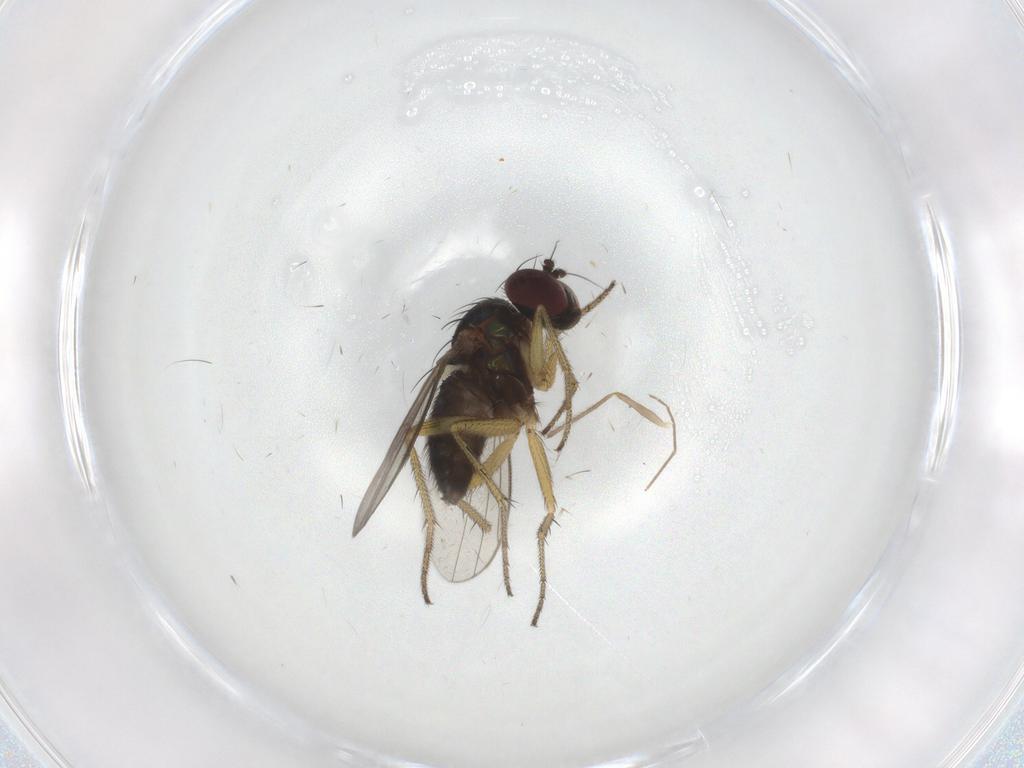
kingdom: Animalia
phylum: Arthropoda
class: Insecta
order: Diptera
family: Chironomidae
